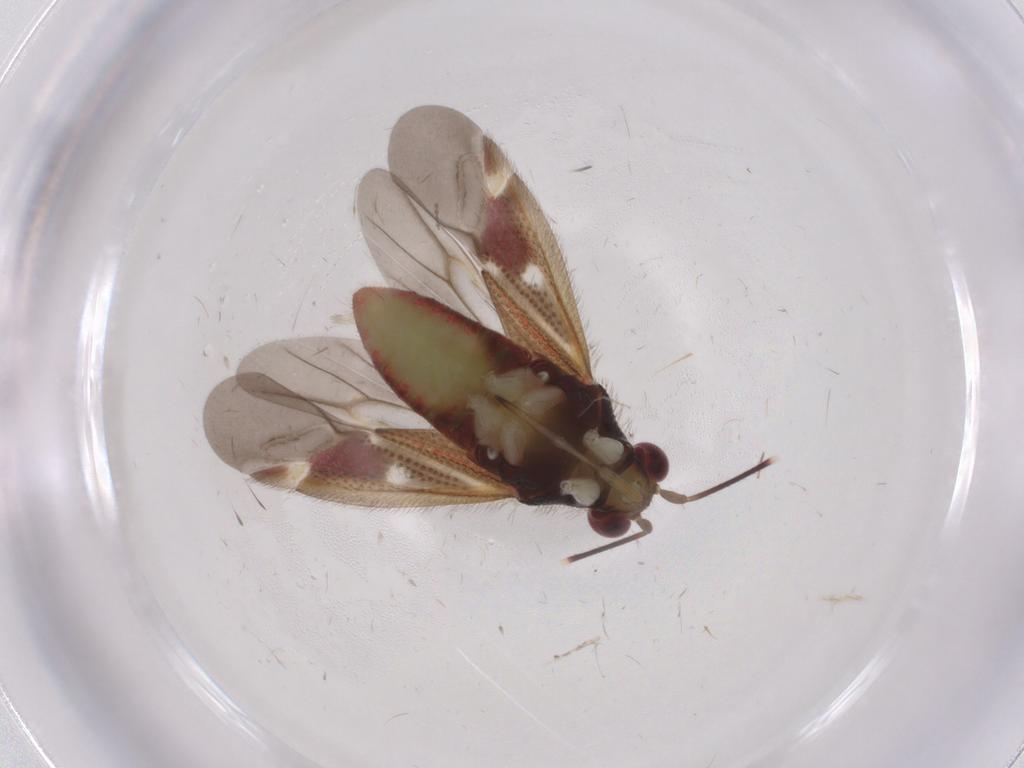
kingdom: Animalia
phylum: Arthropoda
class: Insecta
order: Hemiptera
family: Miridae
